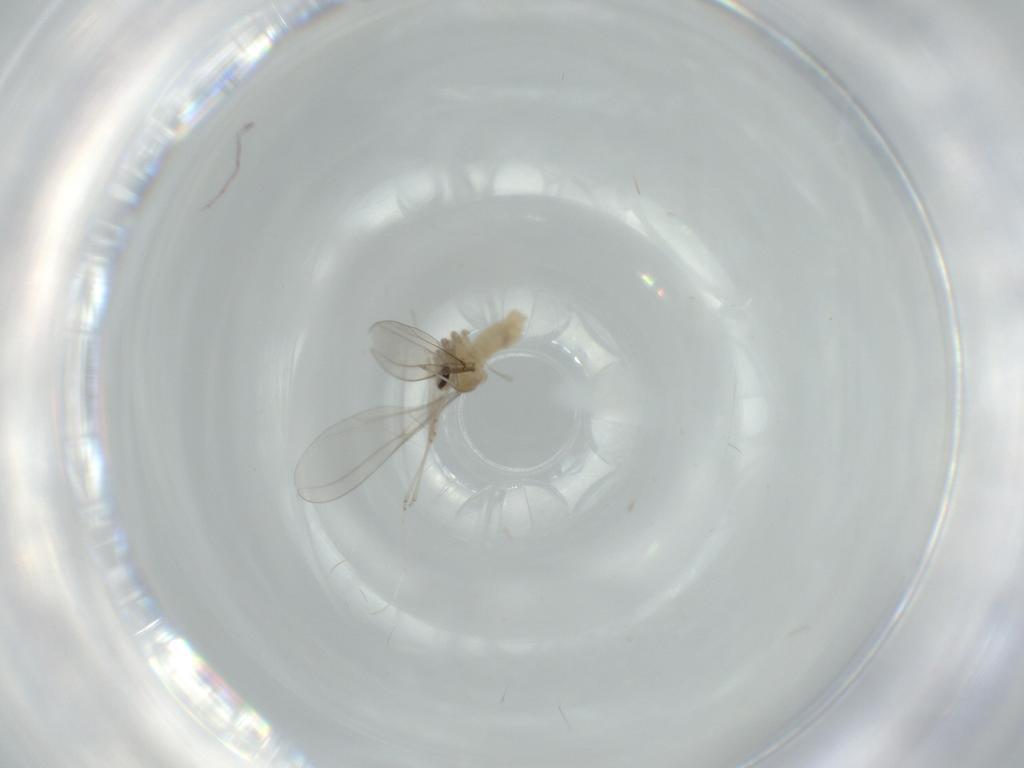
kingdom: Animalia
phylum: Arthropoda
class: Insecta
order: Diptera
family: Cecidomyiidae
